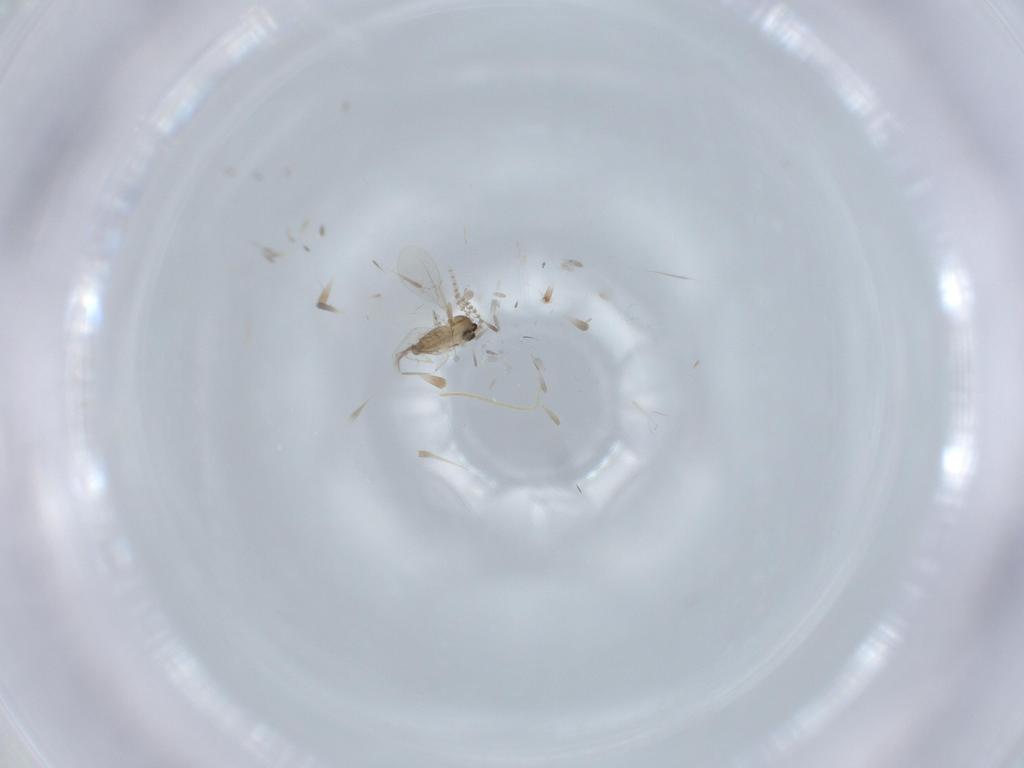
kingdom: Animalia
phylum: Arthropoda
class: Insecta
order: Diptera
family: Cecidomyiidae
